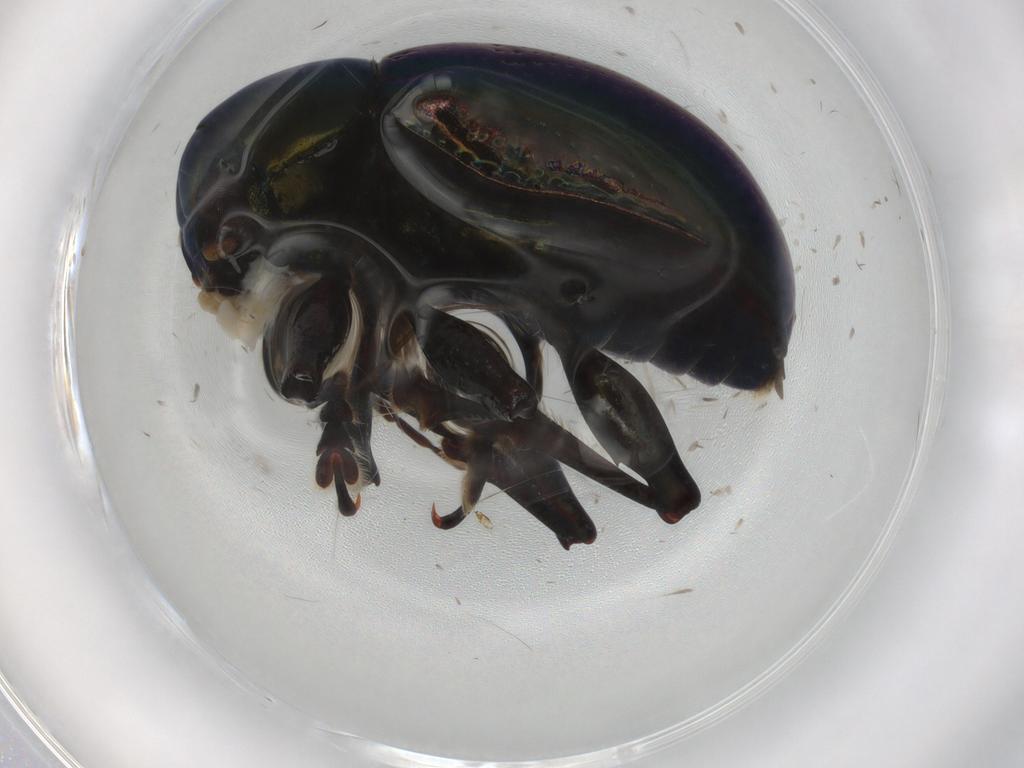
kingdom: Animalia
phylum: Arthropoda
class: Insecta
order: Coleoptera
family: Chrysomelidae
